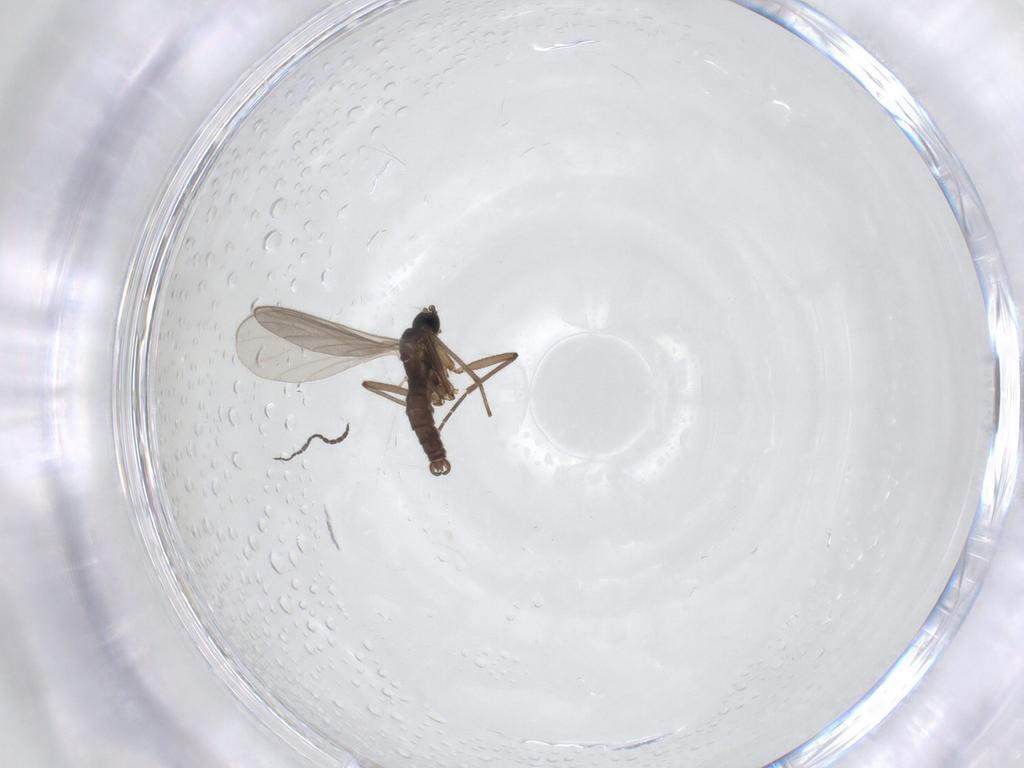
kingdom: Animalia
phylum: Arthropoda
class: Insecta
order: Diptera
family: Sciaridae
